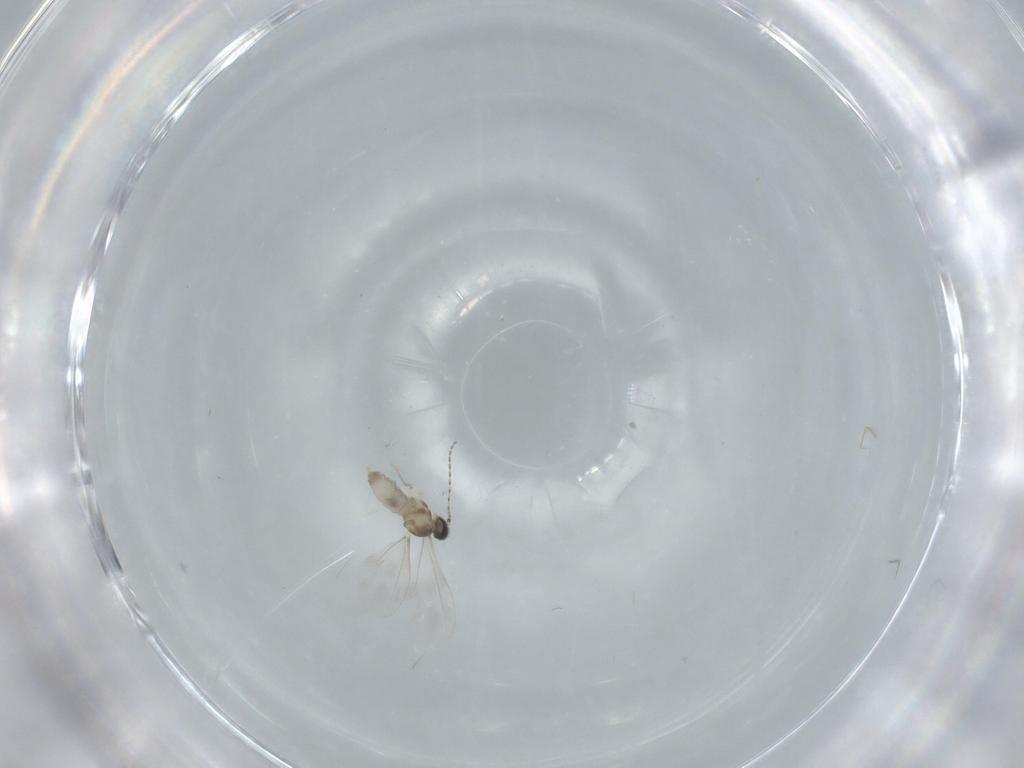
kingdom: Animalia
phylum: Arthropoda
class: Insecta
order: Diptera
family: Cecidomyiidae
